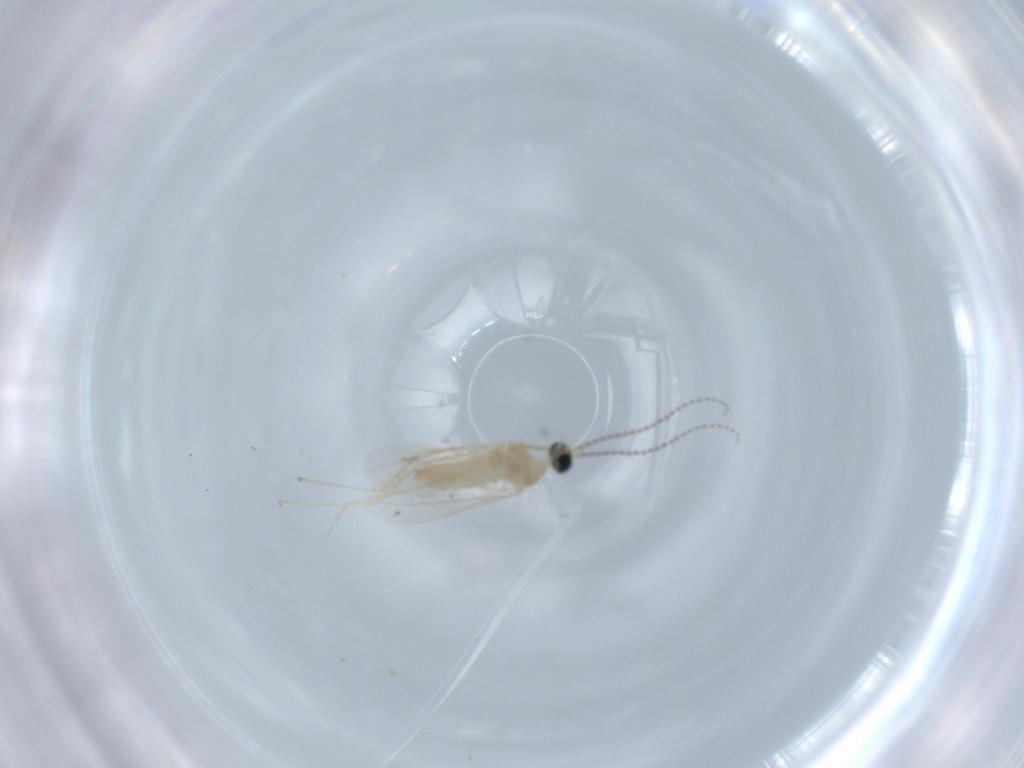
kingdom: Animalia
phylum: Arthropoda
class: Insecta
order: Diptera
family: Cecidomyiidae
